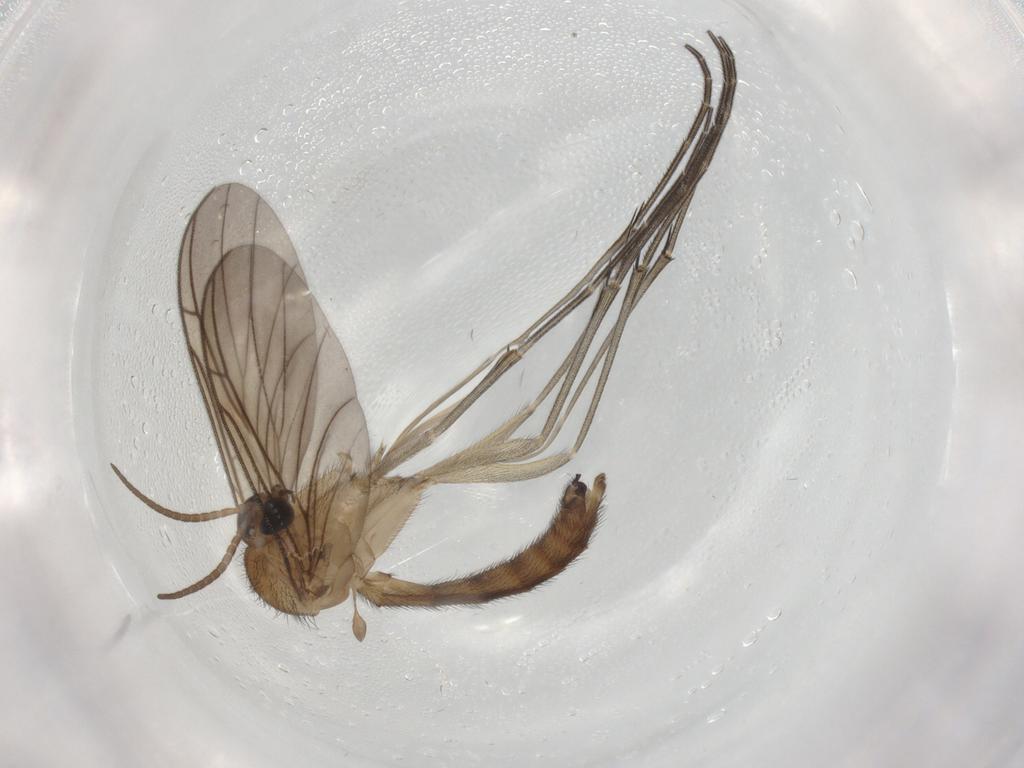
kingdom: Animalia
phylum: Arthropoda
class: Insecta
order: Diptera
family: Keroplatidae
